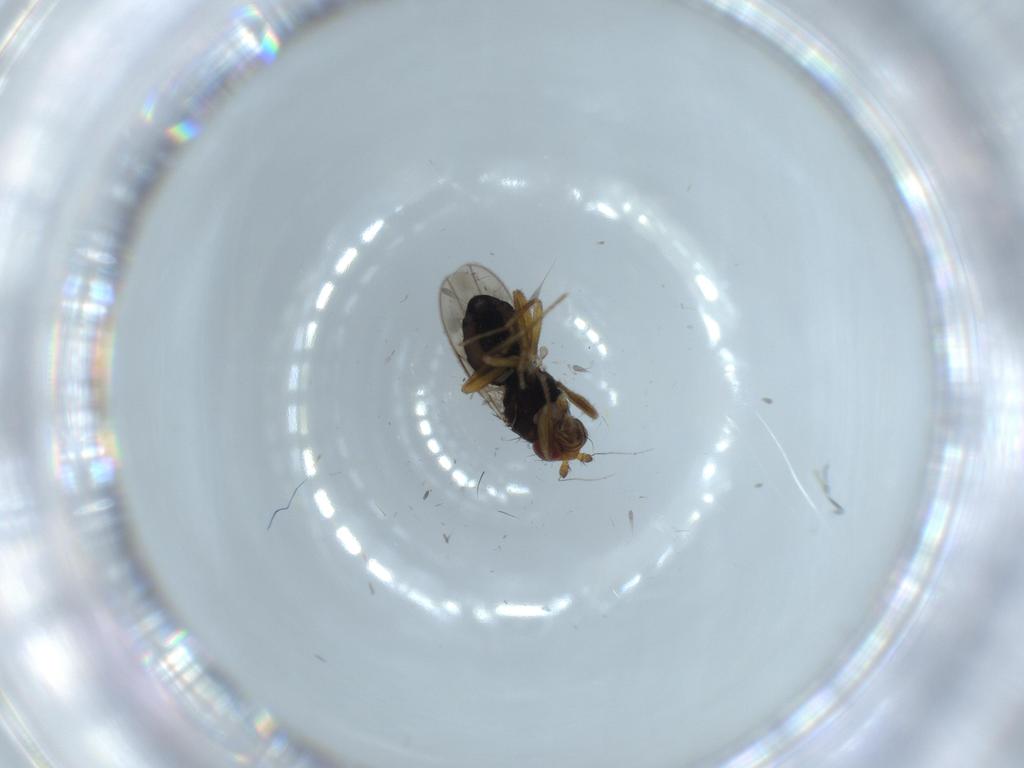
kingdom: Animalia
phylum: Arthropoda
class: Insecta
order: Diptera
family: Sphaeroceridae
